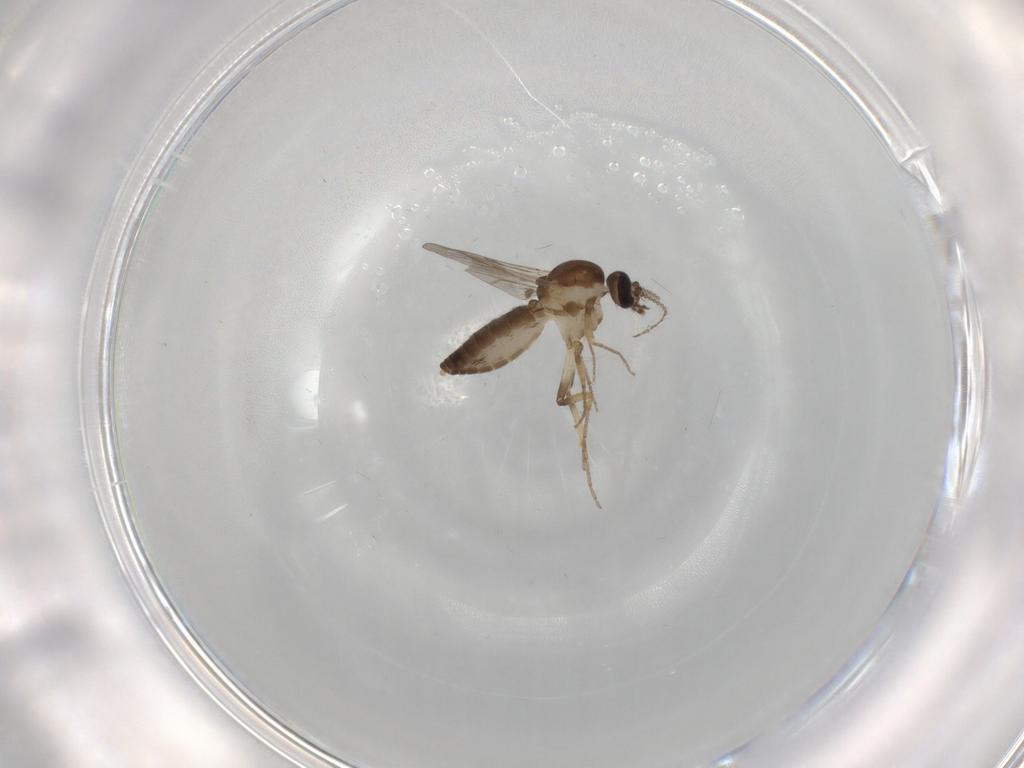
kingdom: Animalia
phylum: Arthropoda
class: Insecta
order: Diptera
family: Ceratopogonidae
